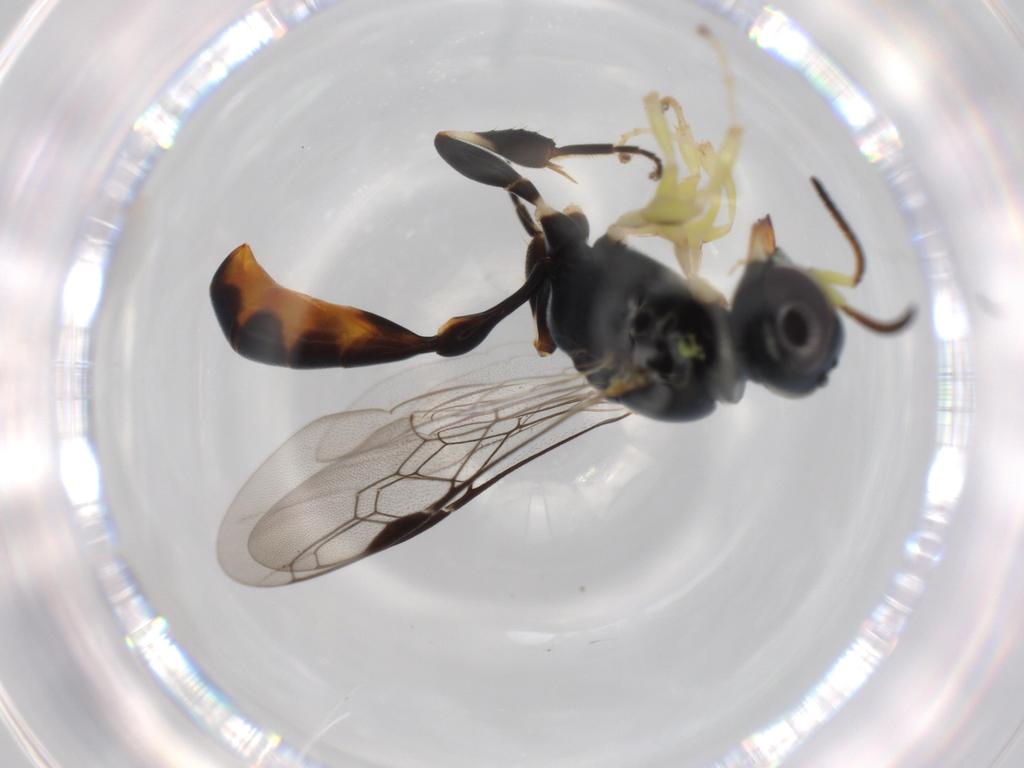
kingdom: Animalia
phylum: Arthropoda
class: Insecta
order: Hymenoptera
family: Crabronidae
